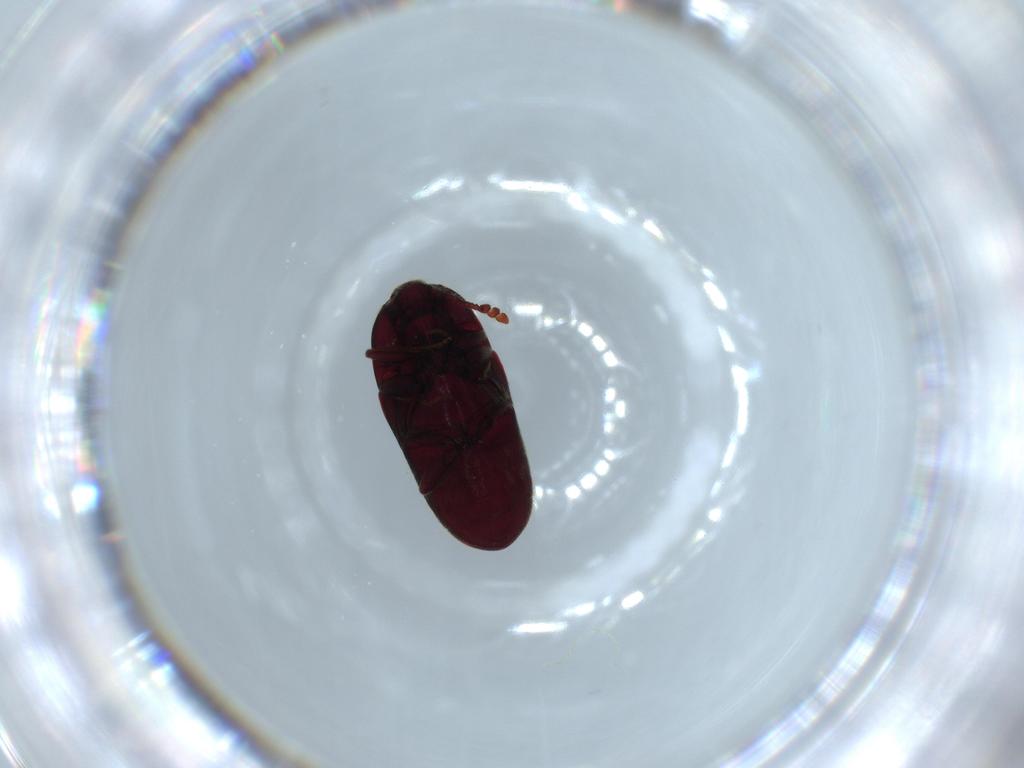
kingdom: Animalia
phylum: Arthropoda
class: Insecta
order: Coleoptera
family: Throscidae
